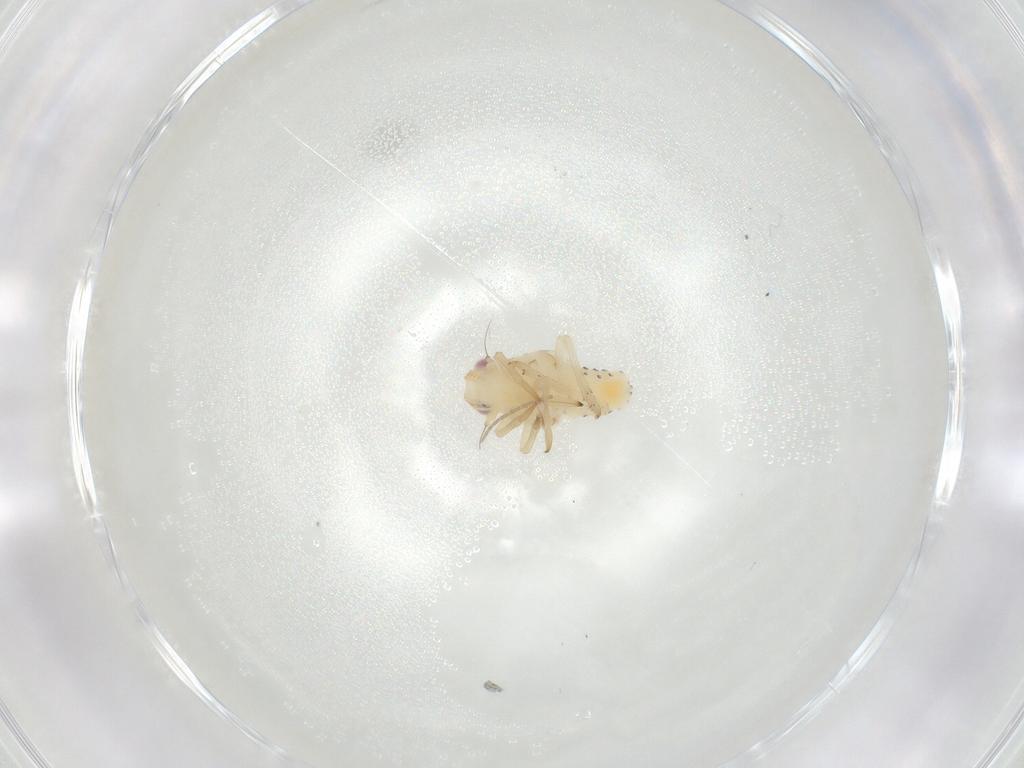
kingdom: Animalia
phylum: Arthropoda
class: Insecta
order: Hemiptera
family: Tropiduchidae
